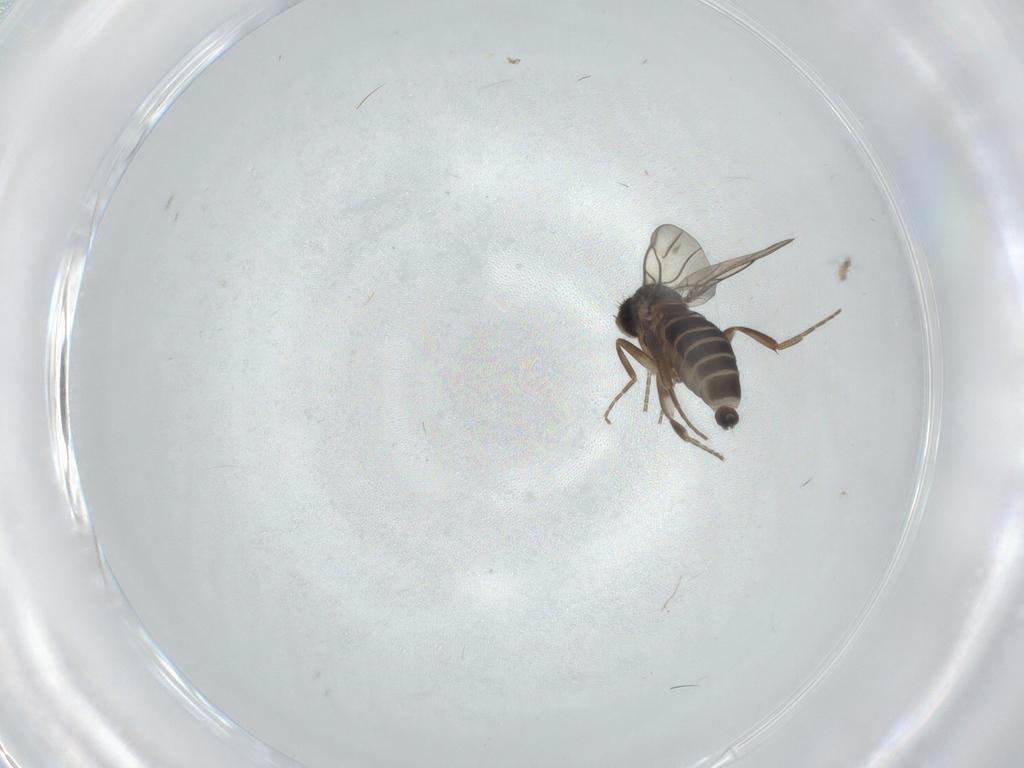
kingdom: Animalia
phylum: Arthropoda
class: Insecta
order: Diptera
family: Phoridae
